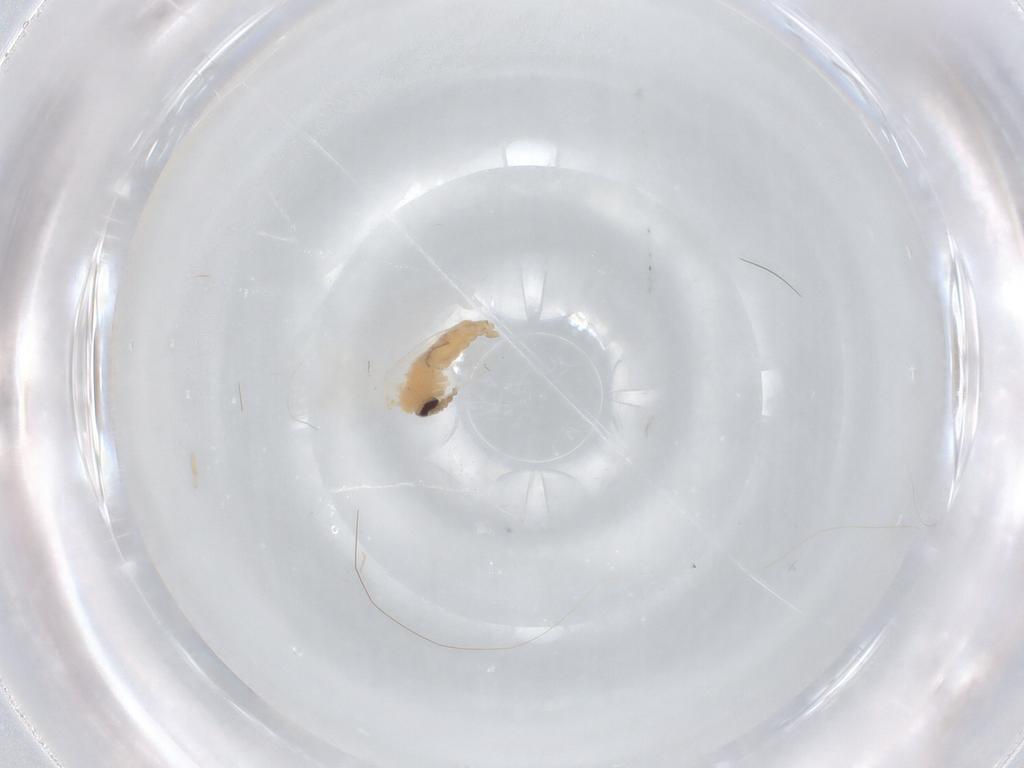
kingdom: Animalia
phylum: Arthropoda
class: Insecta
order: Diptera
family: Psychodidae
